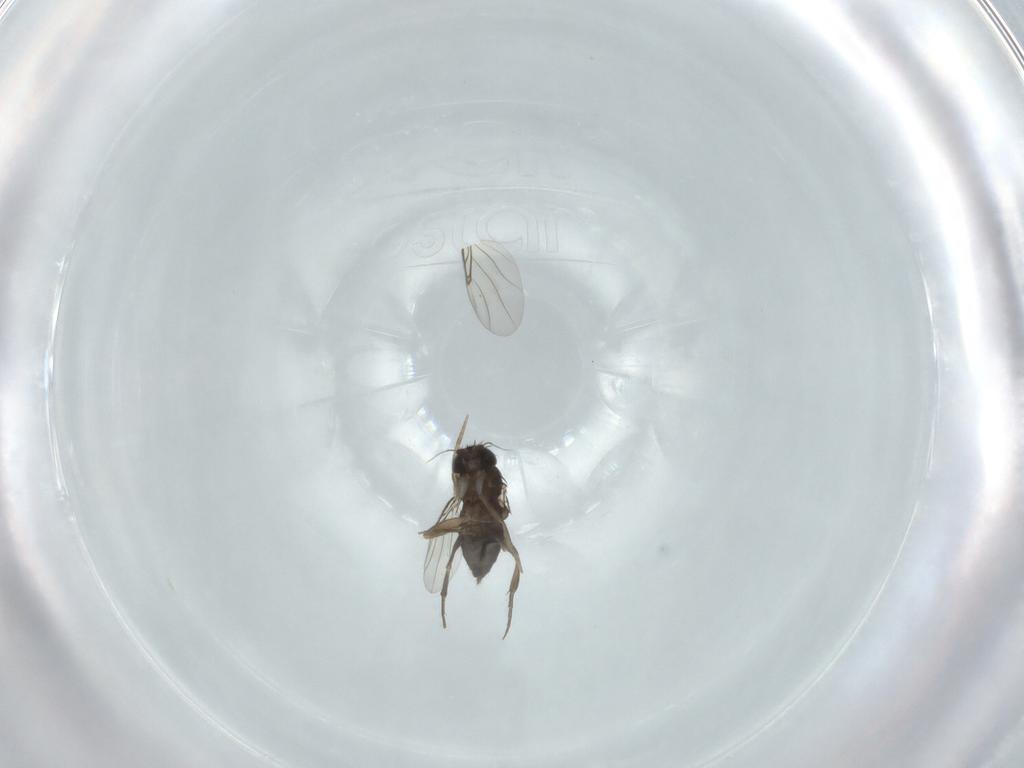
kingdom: Animalia
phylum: Arthropoda
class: Insecta
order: Diptera
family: Phoridae
